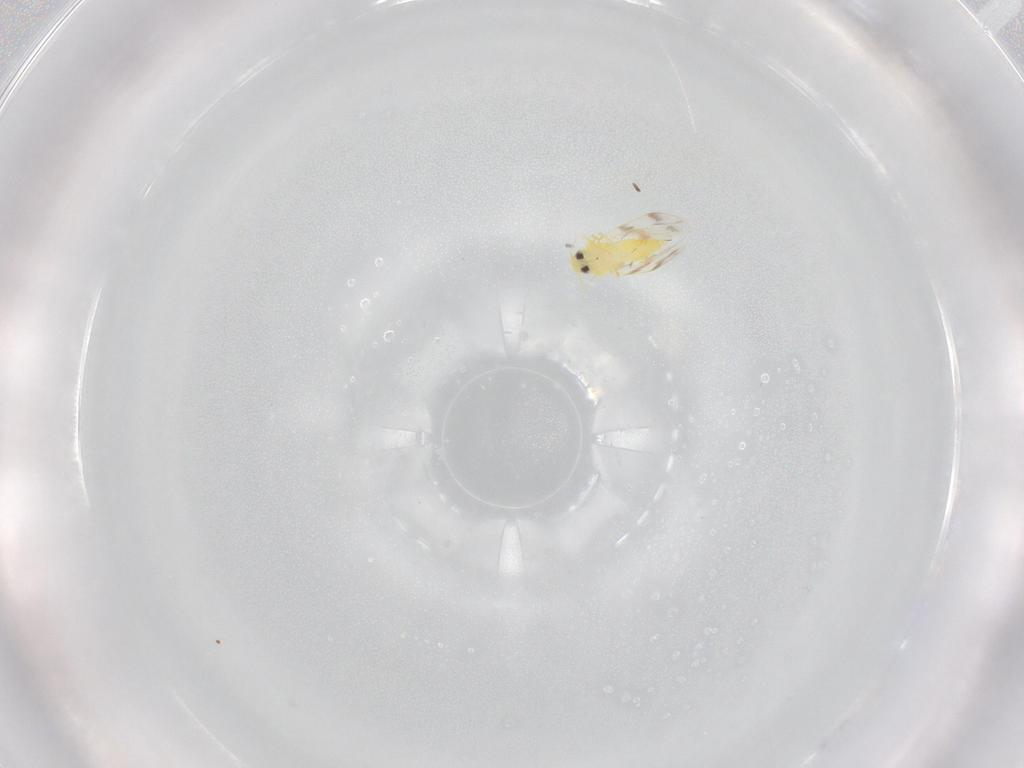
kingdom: Animalia
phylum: Arthropoda
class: Insecta
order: Hemiptera
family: Aleyrodidae
